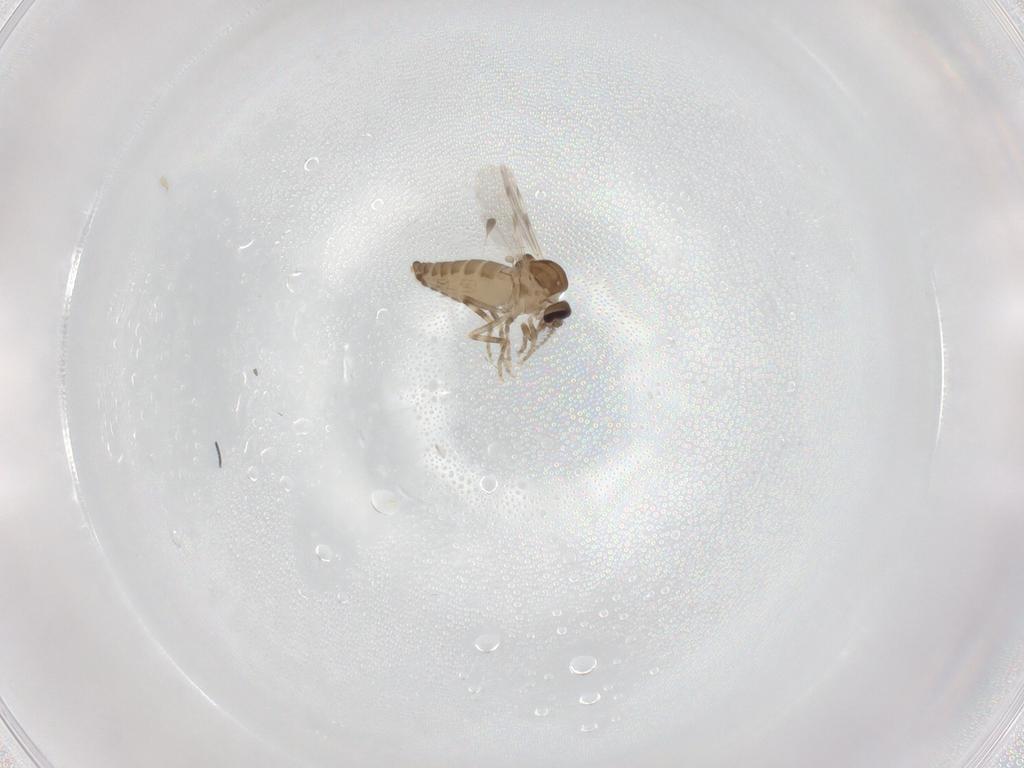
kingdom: Animalia
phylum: Arthropoda
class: Insecta
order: Diptera
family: Ceratopogonidae
